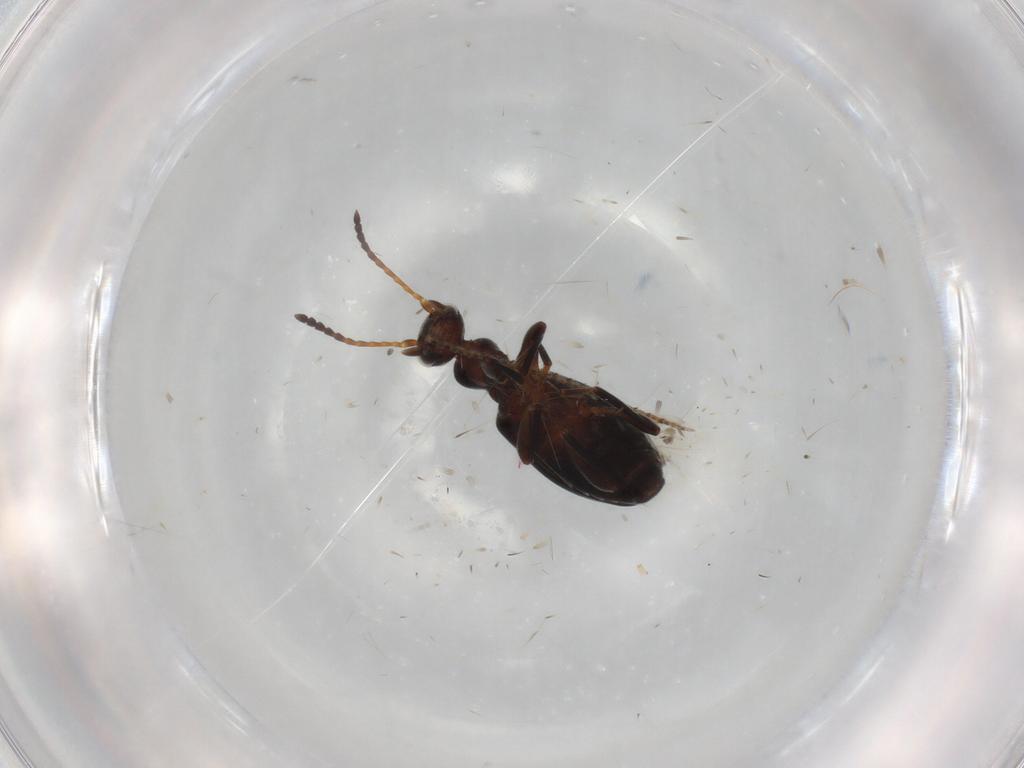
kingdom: Animalia
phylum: Arthropoda
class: Insecta
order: Coleoptera
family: Anthicidae
